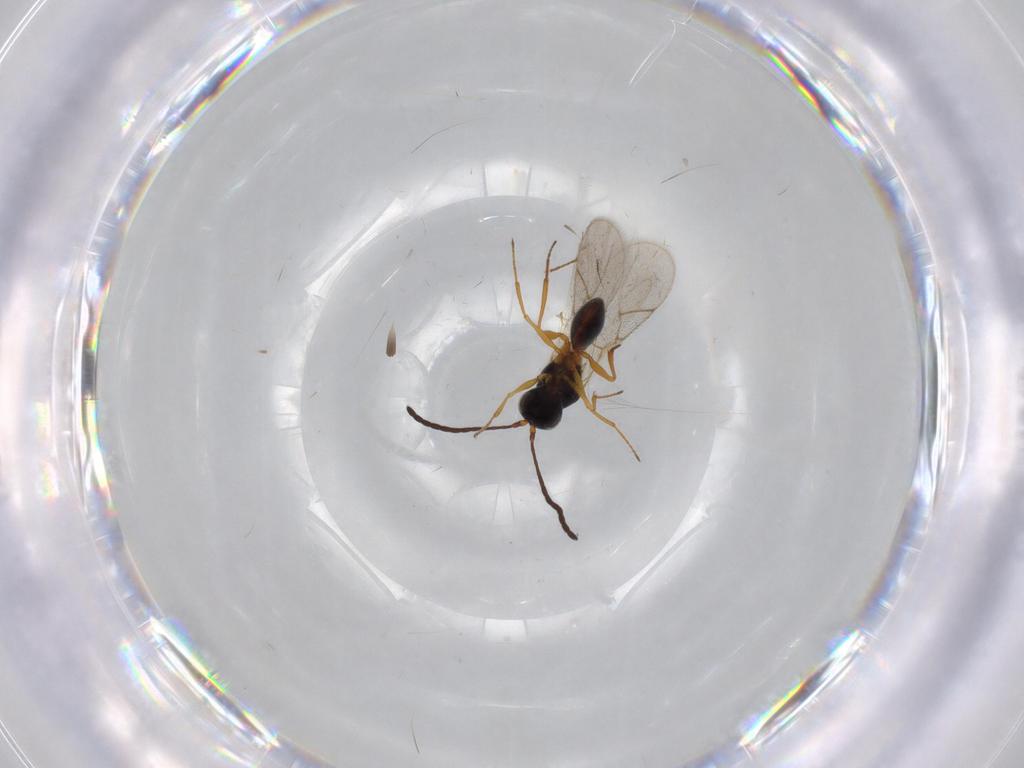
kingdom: Animalia
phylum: Arthropoda
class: Insecta
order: Hymenoptera
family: Figitidae
